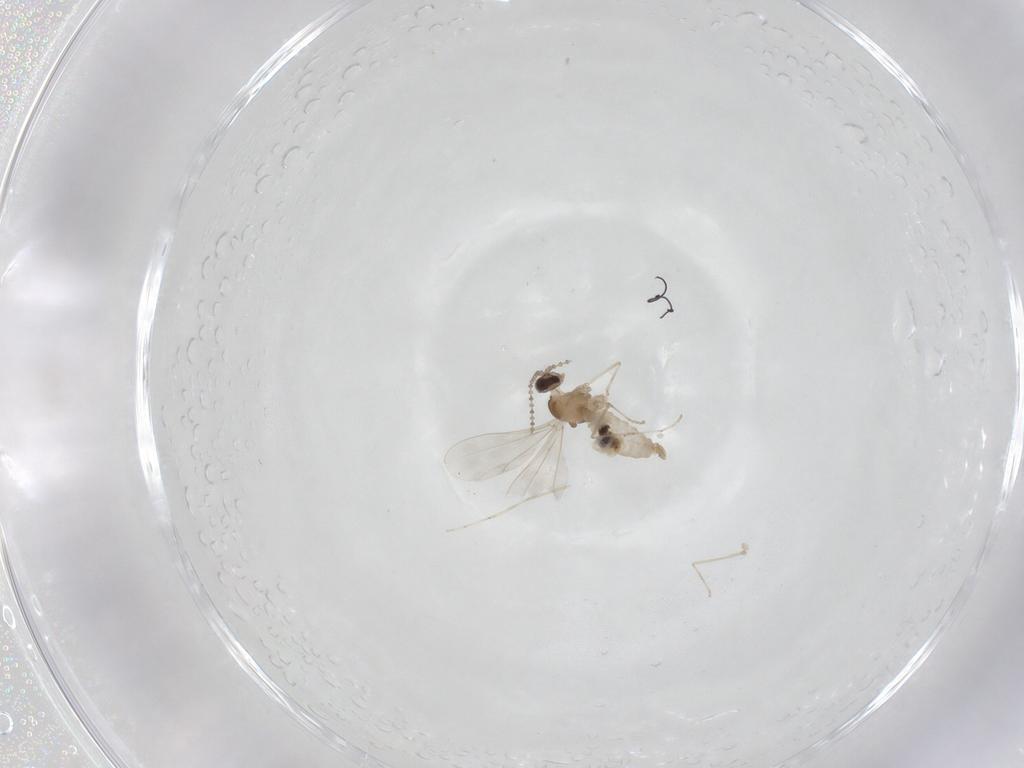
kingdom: Animalia
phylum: Arthropoda
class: Insecta
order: Diptera
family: Cecidomyiidae
